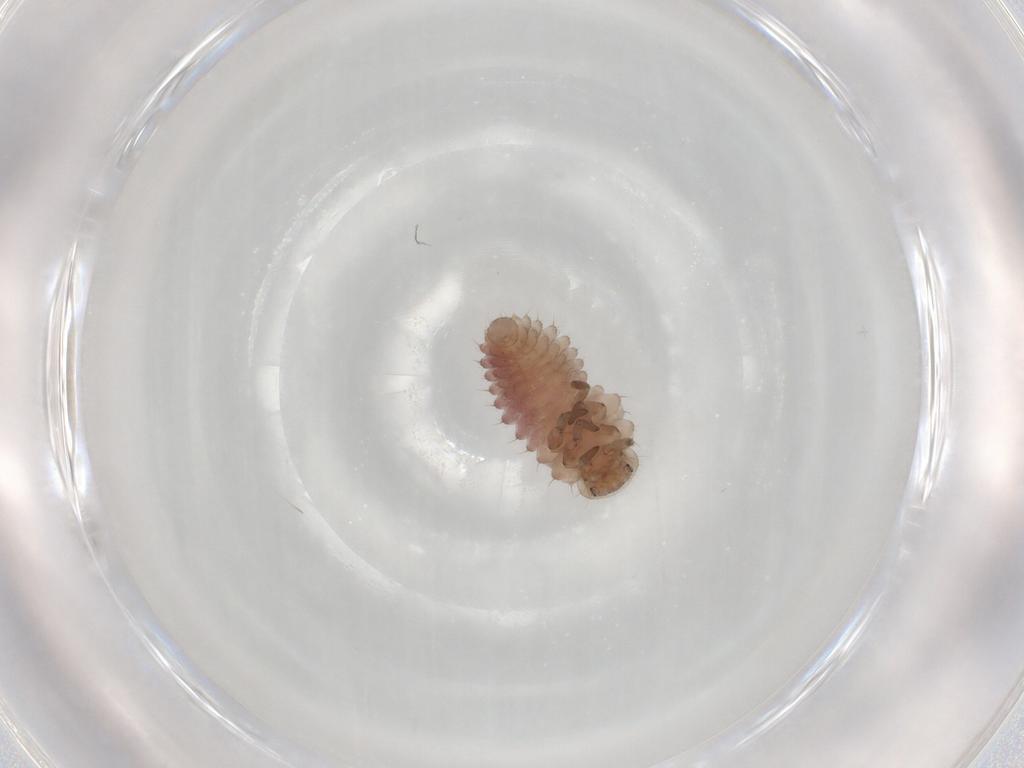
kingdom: Animalia
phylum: Arthropoda
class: Insecta
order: Coleoptera
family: Coccinellidae
